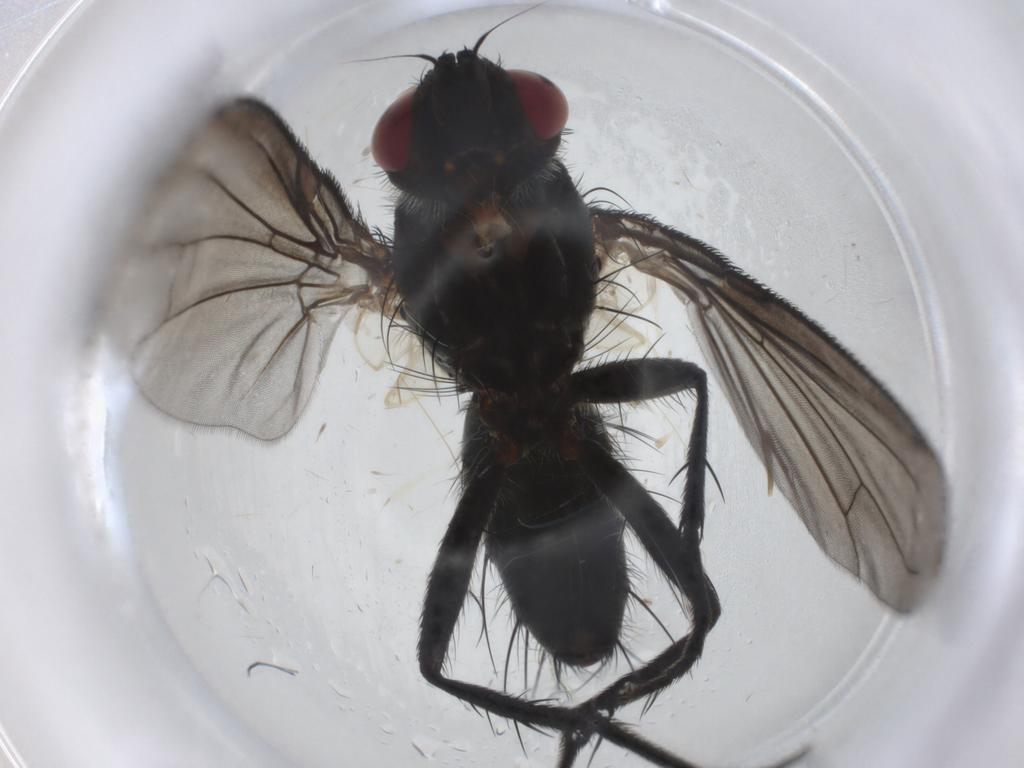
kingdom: Animalia
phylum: Arthropoda
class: Insecta
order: Diptera
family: Tachinidae
